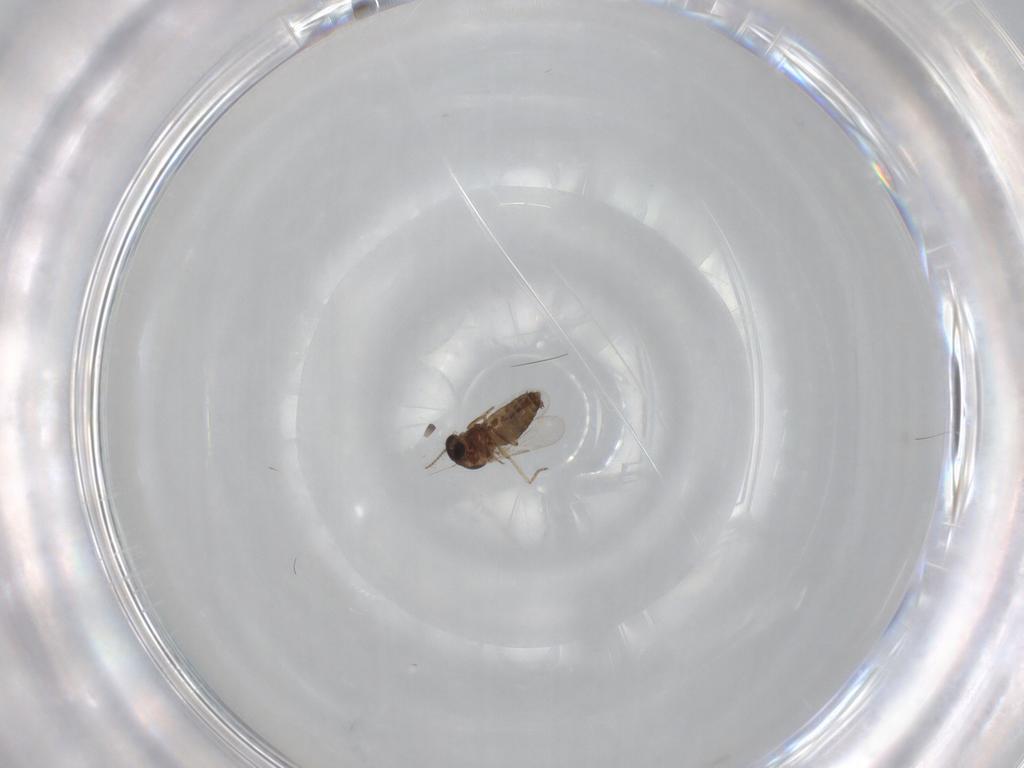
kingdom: Animalia
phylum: Arthropoda
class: Insecta
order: Diptera
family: Ceratopogonidae
